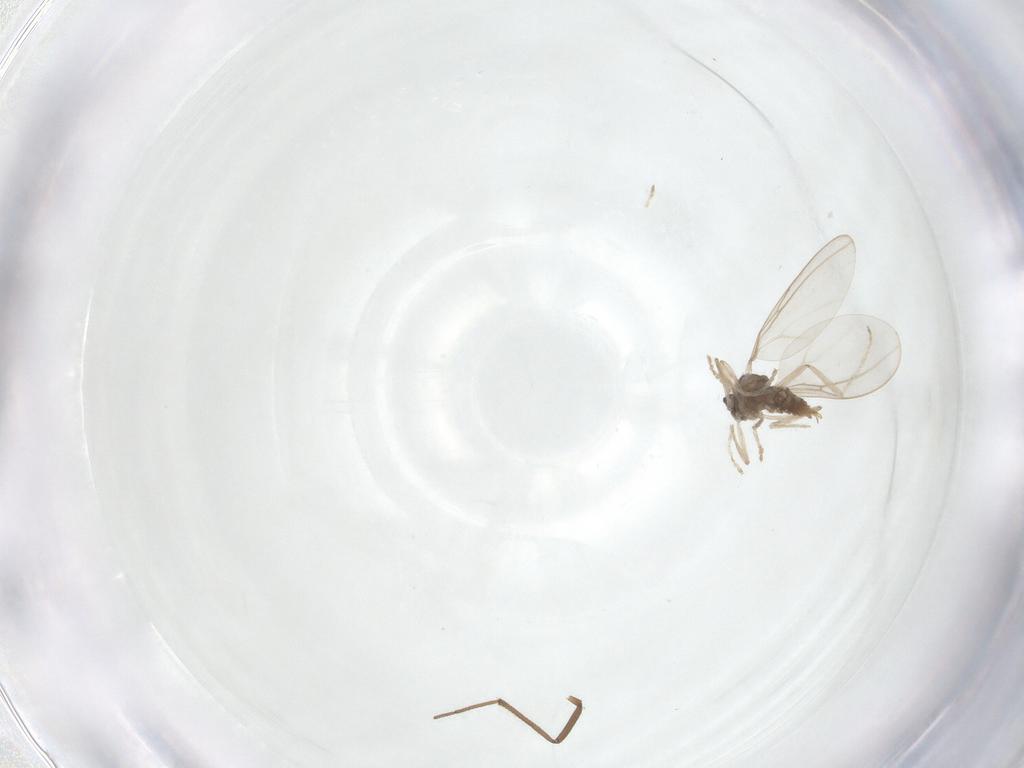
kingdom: Animalia
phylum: Arthropoda
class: Insecta
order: Diptera
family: Cecidomyiidae
